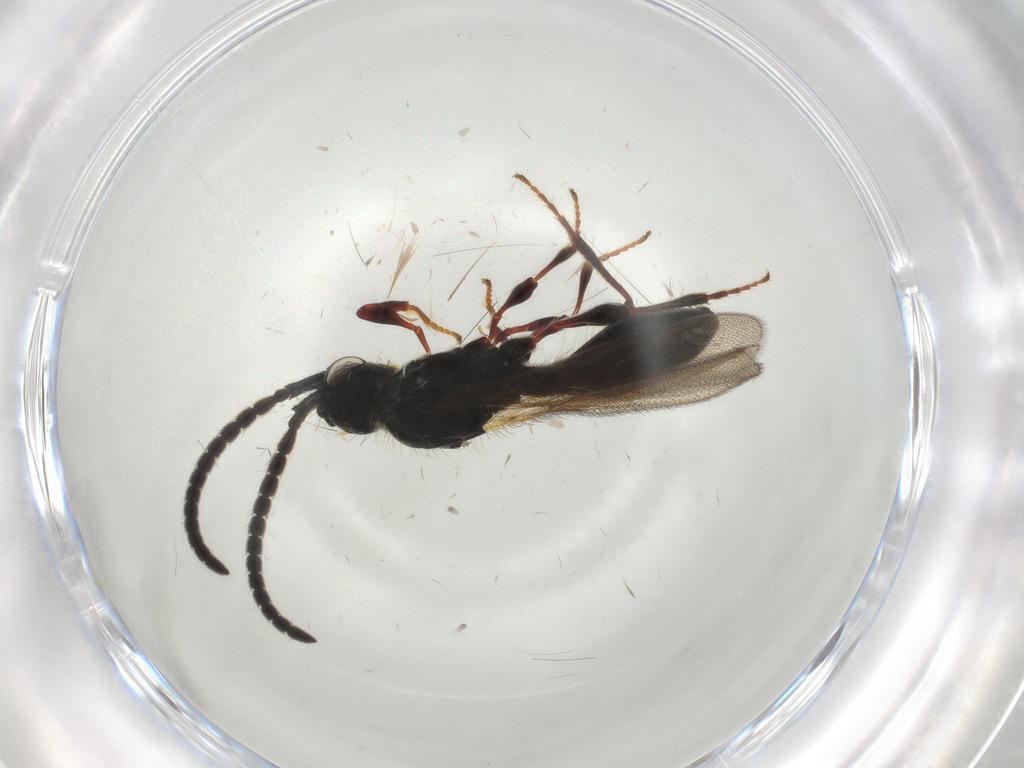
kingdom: Animalia
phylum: Arthropoda
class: Insecta
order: Hymenoptera
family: Diapriidae
